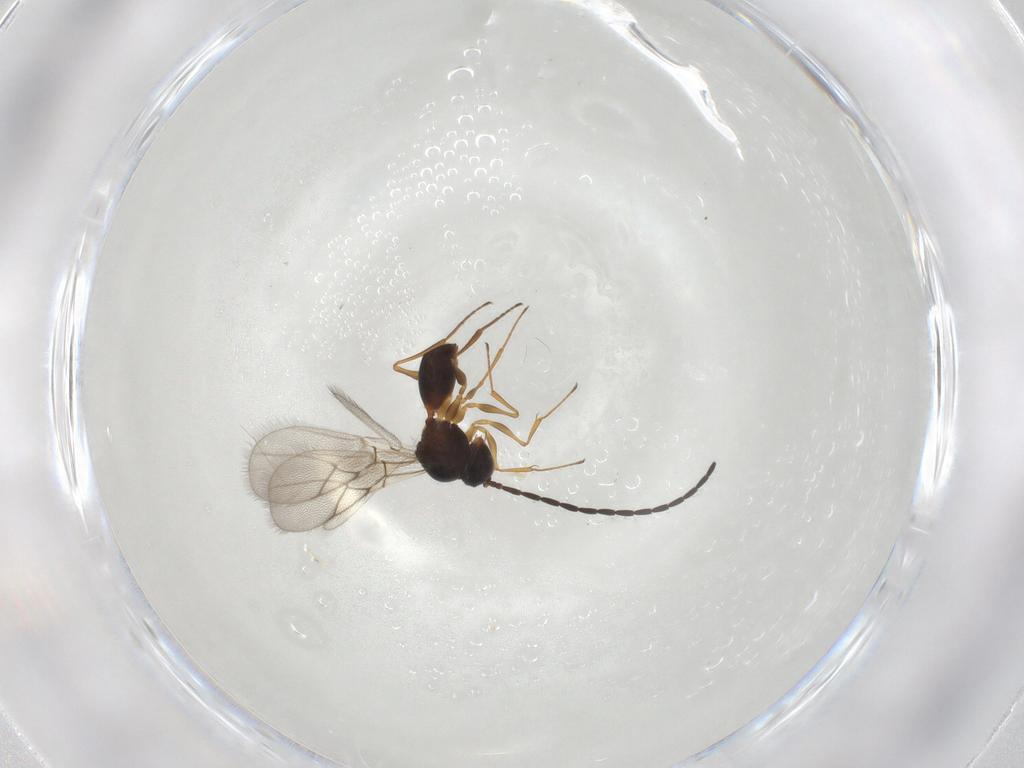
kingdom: Animalia
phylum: Arthropoda
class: Insecta
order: Hymenoptera
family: Figitidae
